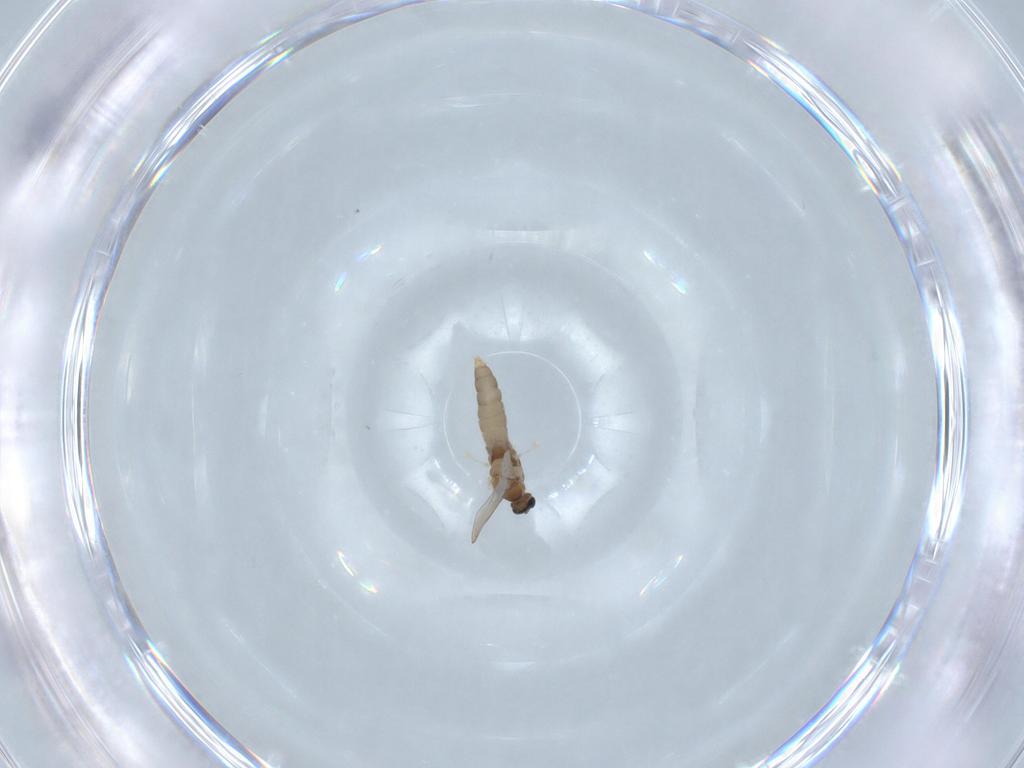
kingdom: Animalia
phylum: Arthropoda
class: Insecta
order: Diptera
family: Cecidomyiidae
